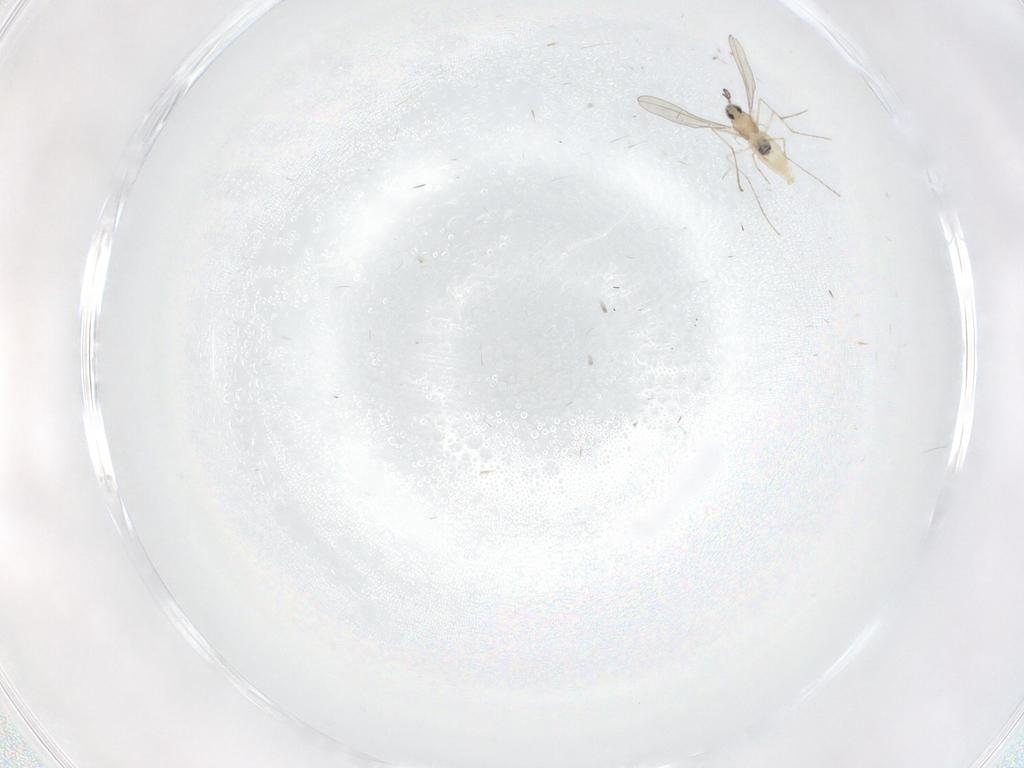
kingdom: Animalia
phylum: Arthropoda
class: Insecta
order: Diptera
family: Cecidomyiidae
